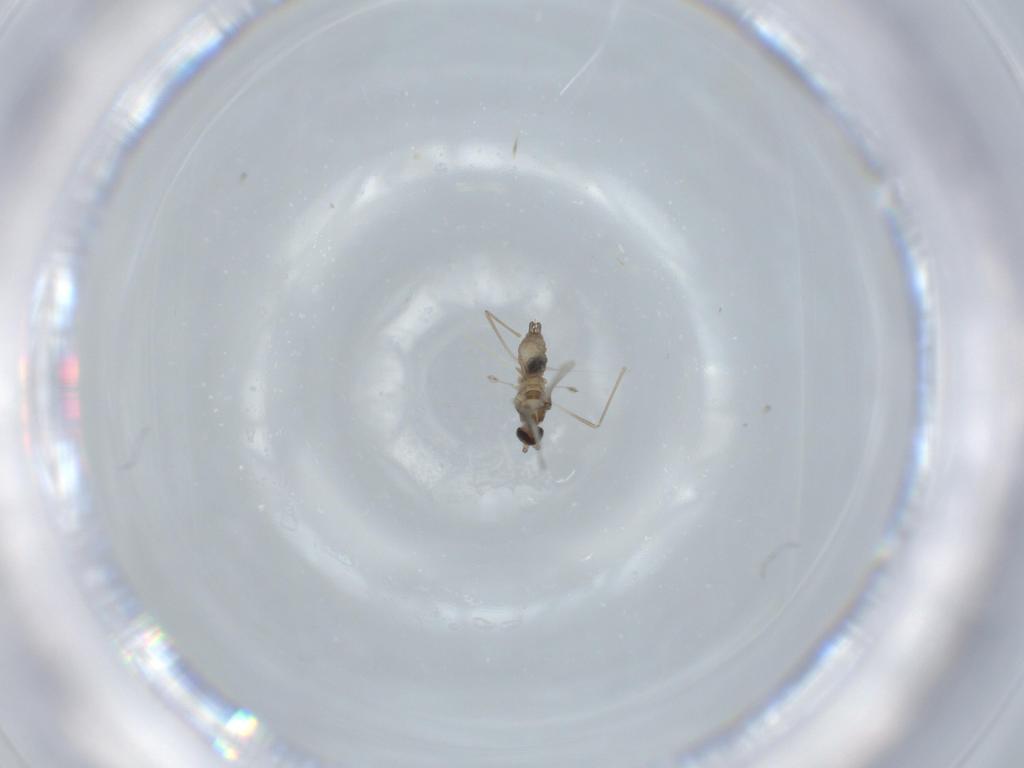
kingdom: Animalia
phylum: Arthropoda
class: Insecta
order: Diptera
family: Cecidomyiidae
